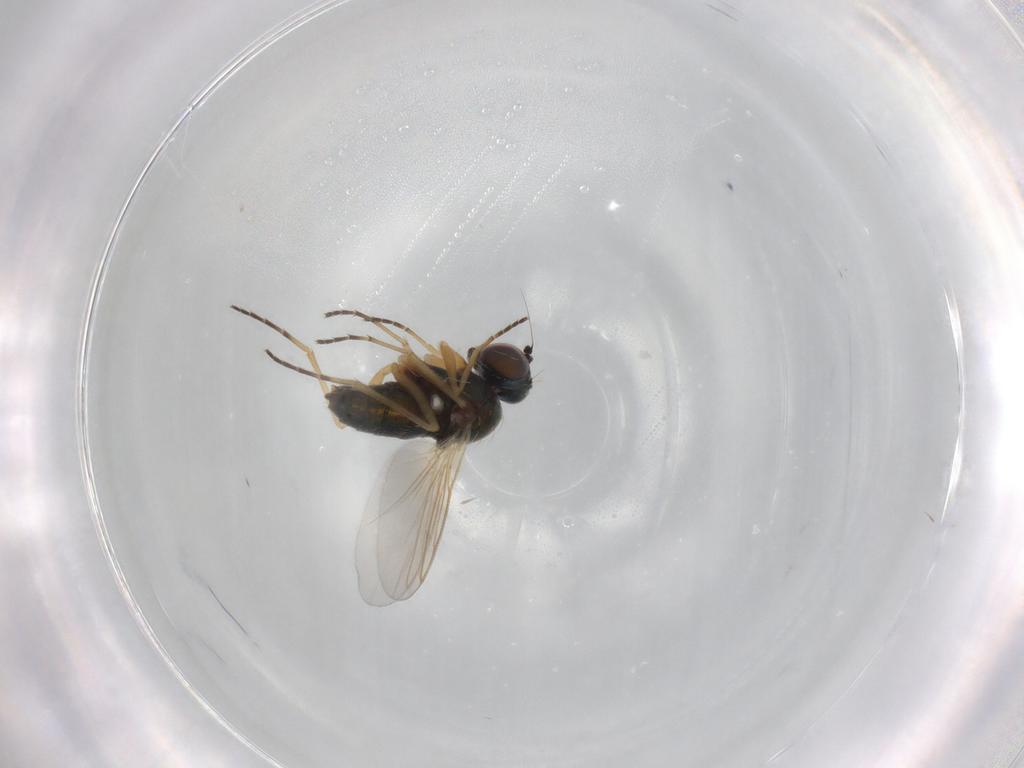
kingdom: Animalia
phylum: Arthropoda
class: Insecta
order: Diptera
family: Dolichopodidae
